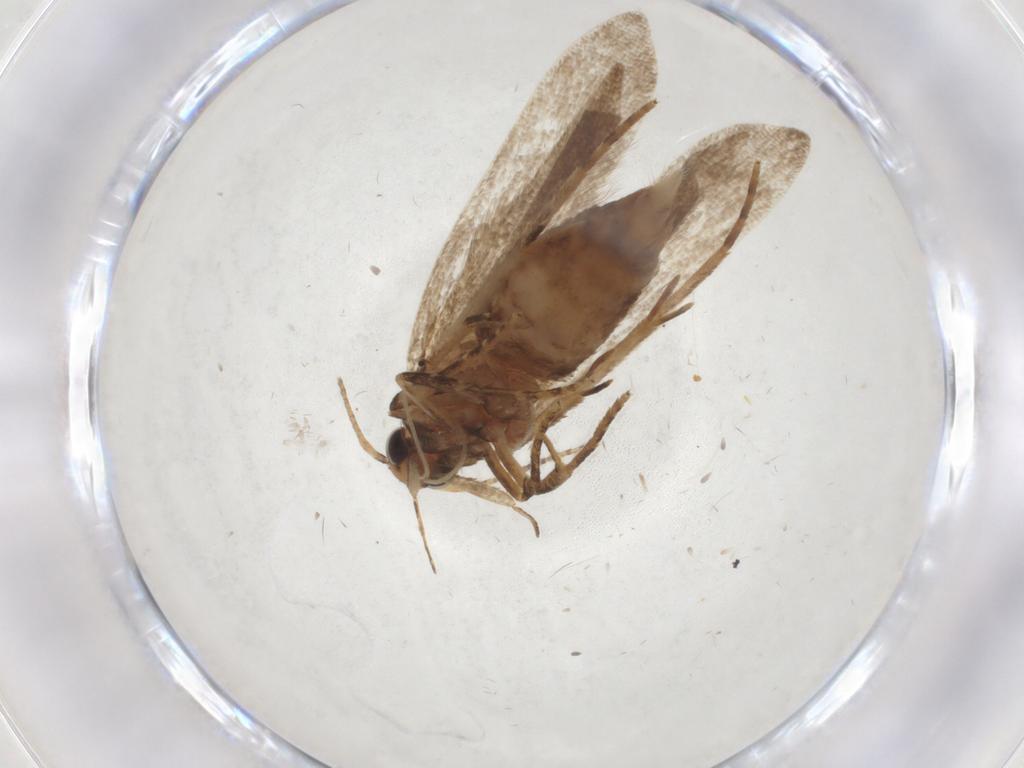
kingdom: Animalia
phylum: Arthropoda
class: Insecta
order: Lepidoptera
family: Gelechiidae
